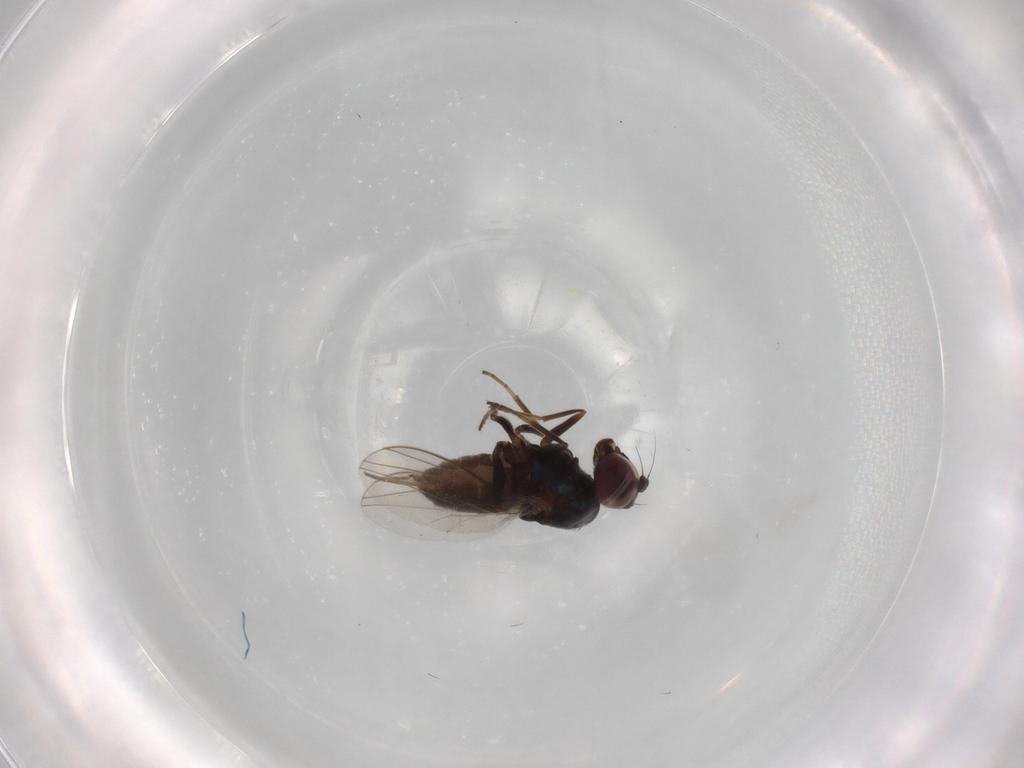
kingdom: Animalia
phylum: Arthropoda
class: Insecta
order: Diptera
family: Dolichopodidae
